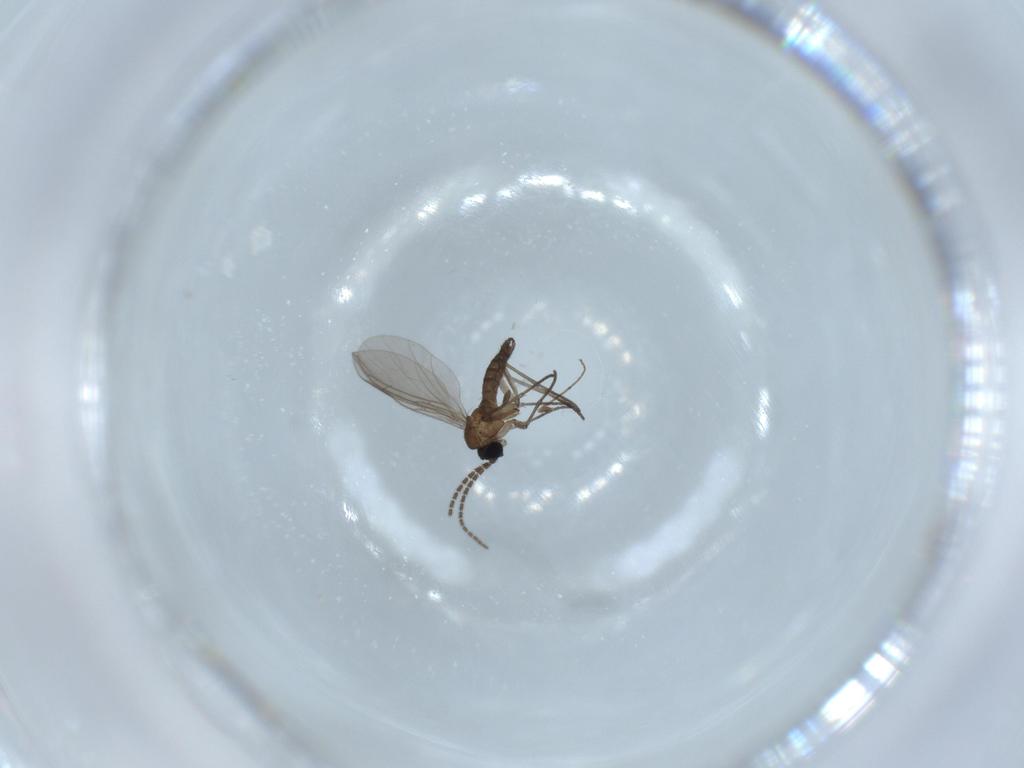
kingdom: Animalia
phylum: Arthropoda
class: Insecta
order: Diptera
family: Sciaridae
